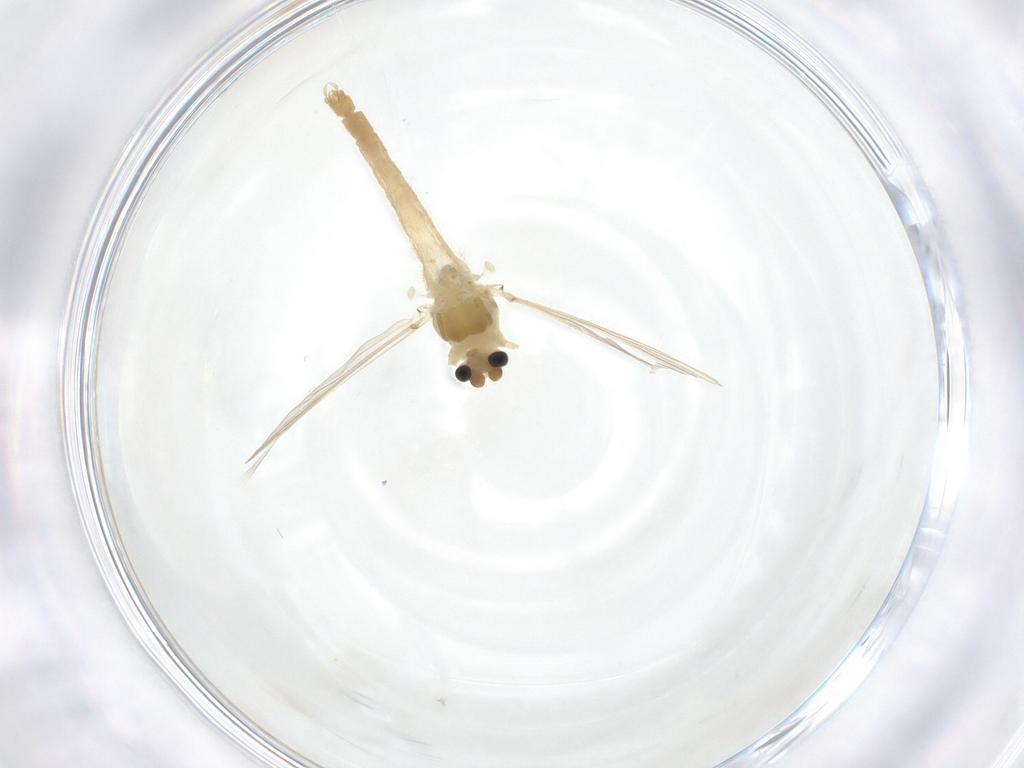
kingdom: Animalia
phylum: Arthropoda
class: Insecta
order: Diptera
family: Chironomidae
